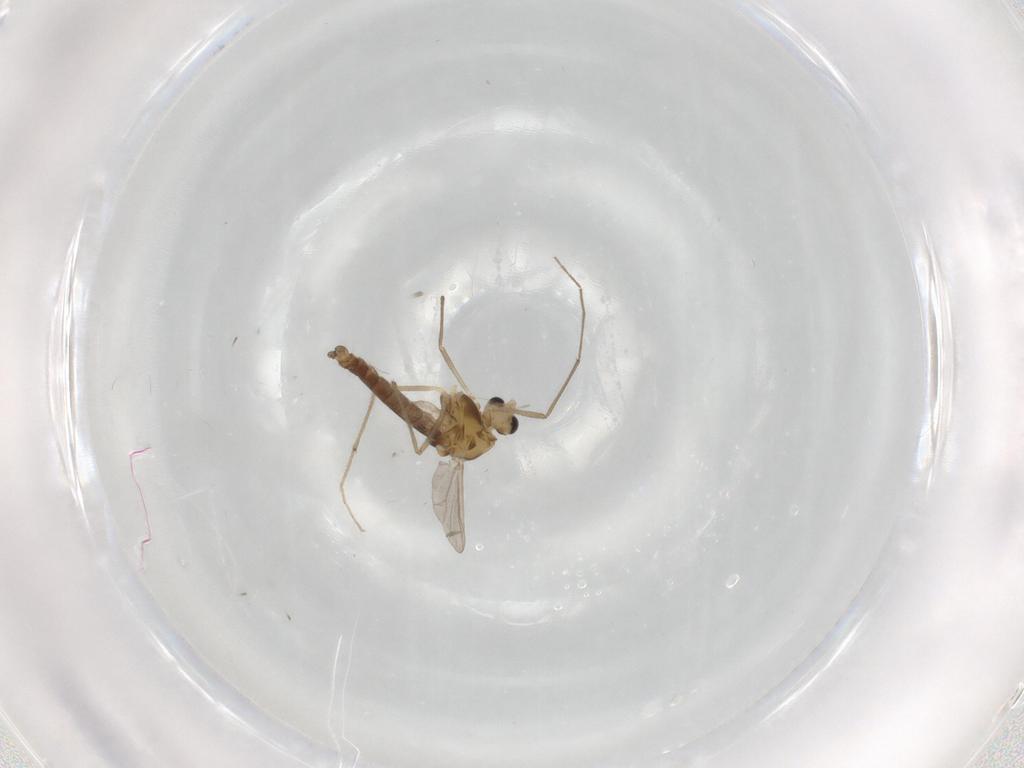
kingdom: Animalia
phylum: Arthropoda
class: Insecta
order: Diptera
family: Chironomidae
